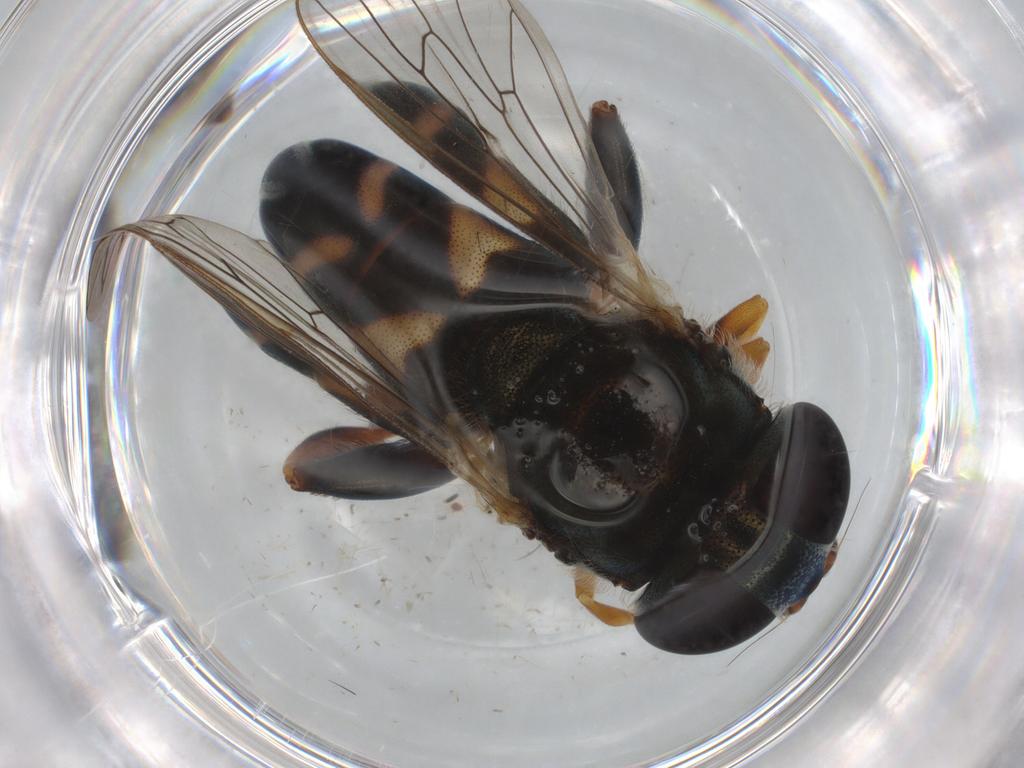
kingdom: Animalia
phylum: Arthropoda
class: Insecta
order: Diptera
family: Syrphidae
